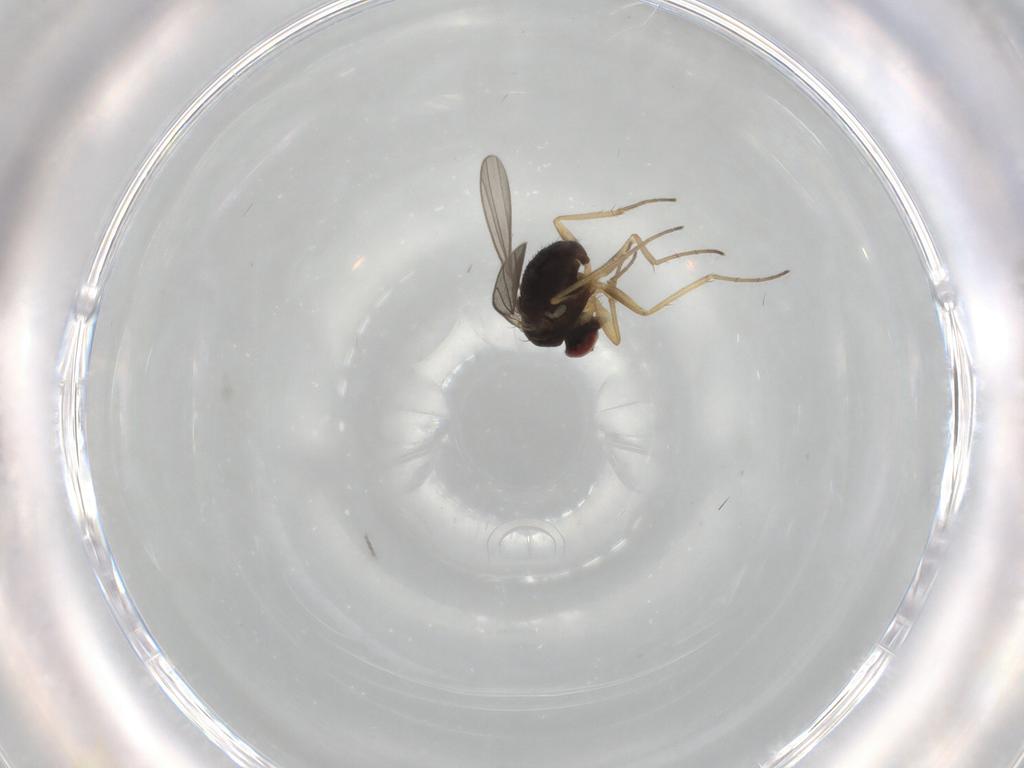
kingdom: Animalia
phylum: Arthropoda
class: Insecta
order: Diptera
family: Dolichopodidae
